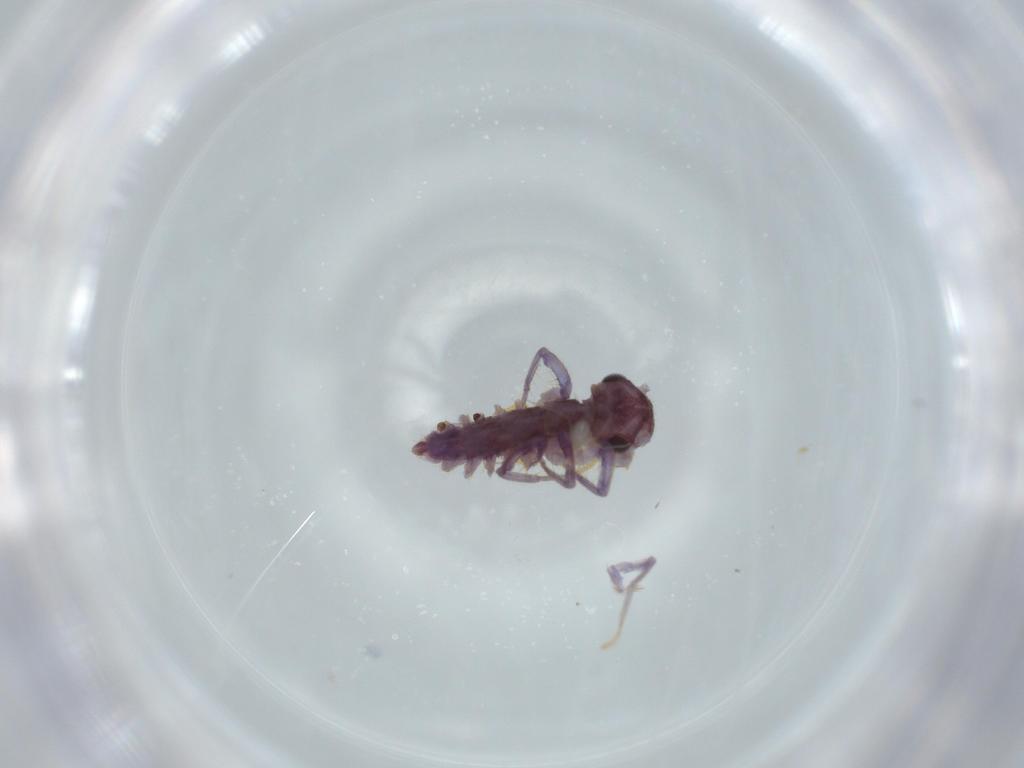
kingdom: Animalia
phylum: Arthropoda
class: Chilopoda
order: Scutigeromorpha
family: Scutigeridae
